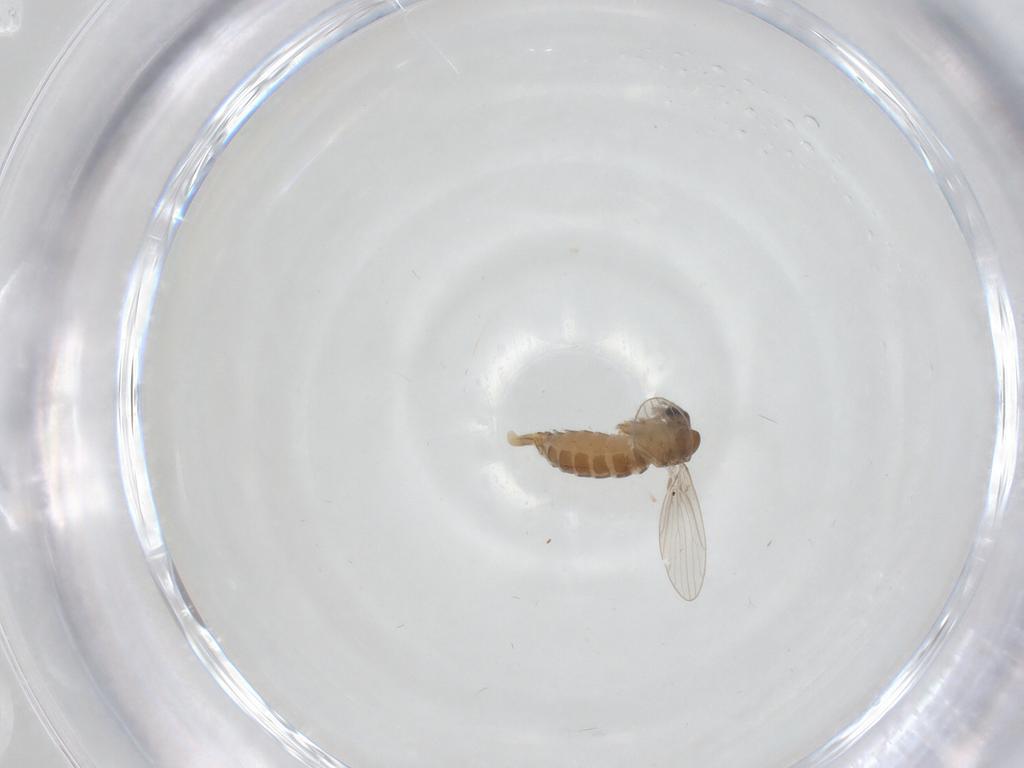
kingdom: Animalia
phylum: Arthropoda
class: Insecta
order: Diptera
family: Psychodidae
